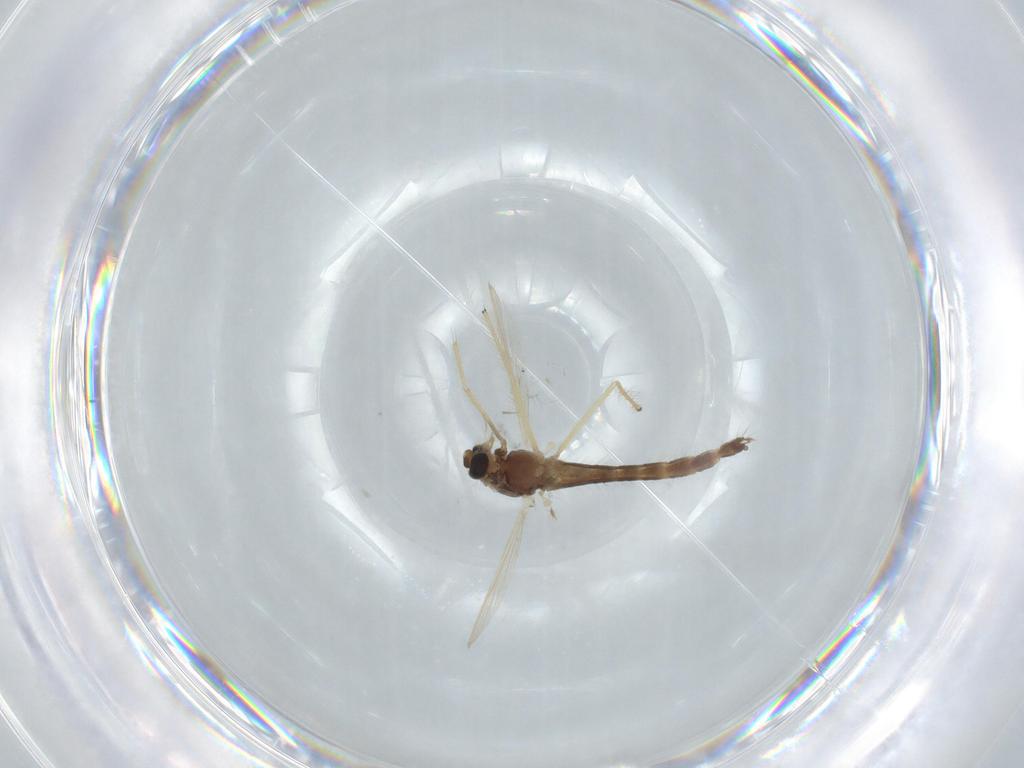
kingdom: Animalia
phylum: Arthropoda
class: Insecta
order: Diptera
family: Chironomidae
